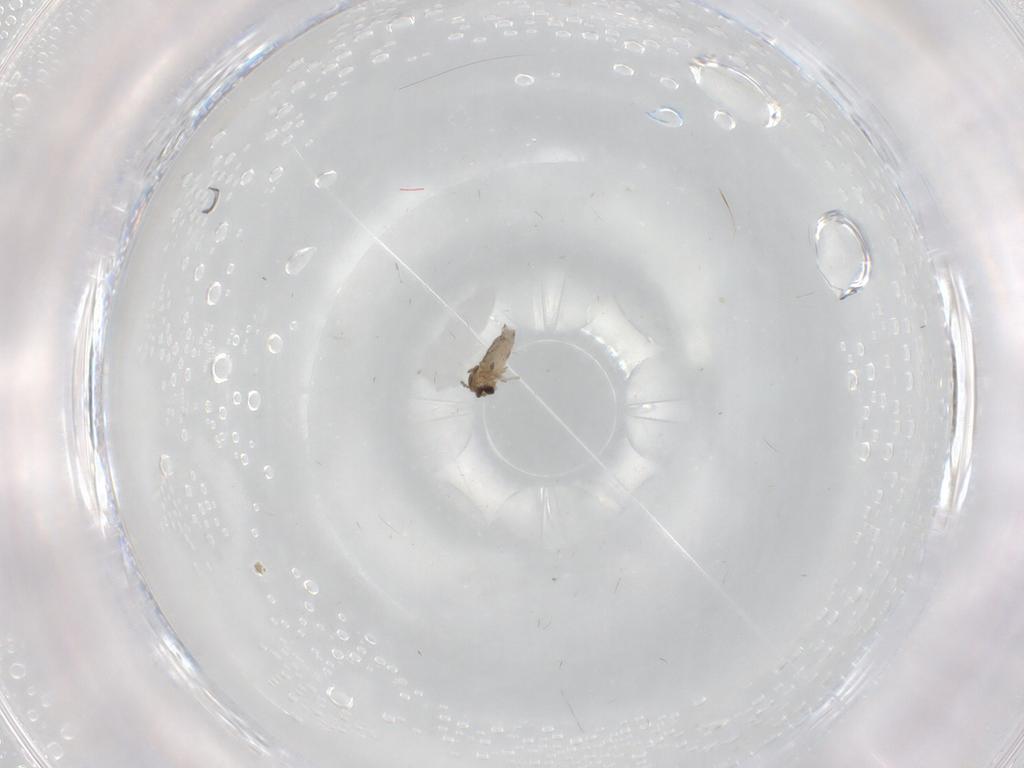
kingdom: Animalia
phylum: Arthropoda
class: Insecta
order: Diptera
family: Cecidomyiidae
